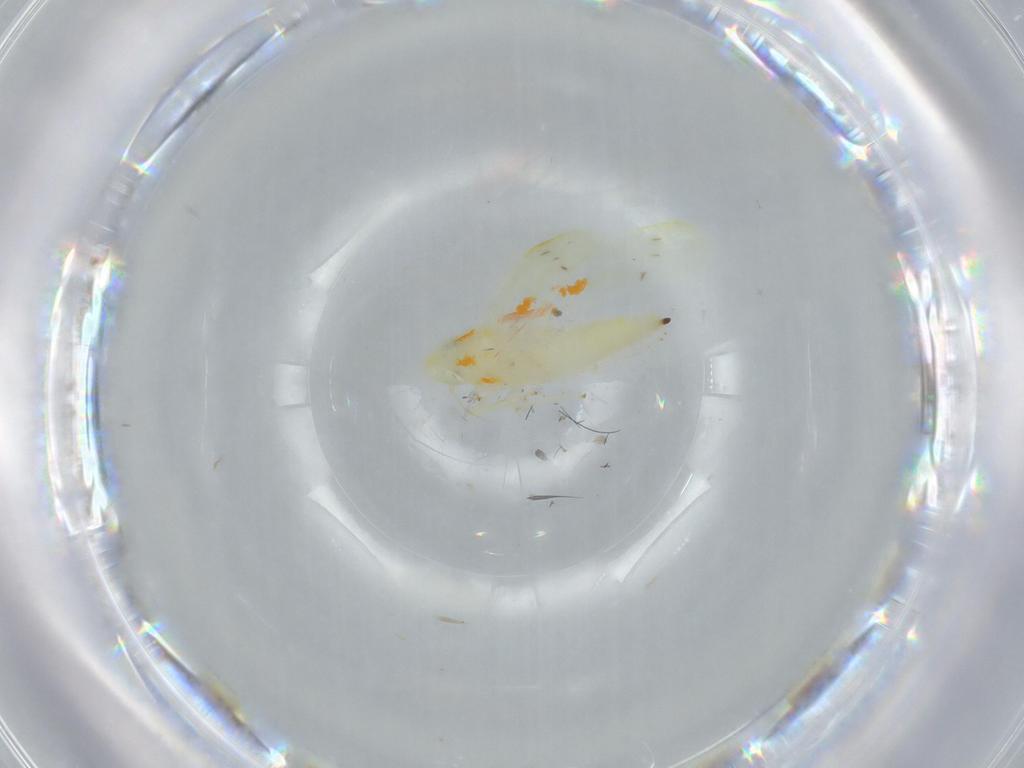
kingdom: Animalia
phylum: Arthropoda
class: Insecta
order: Hemiptera
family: Cicadellidae
